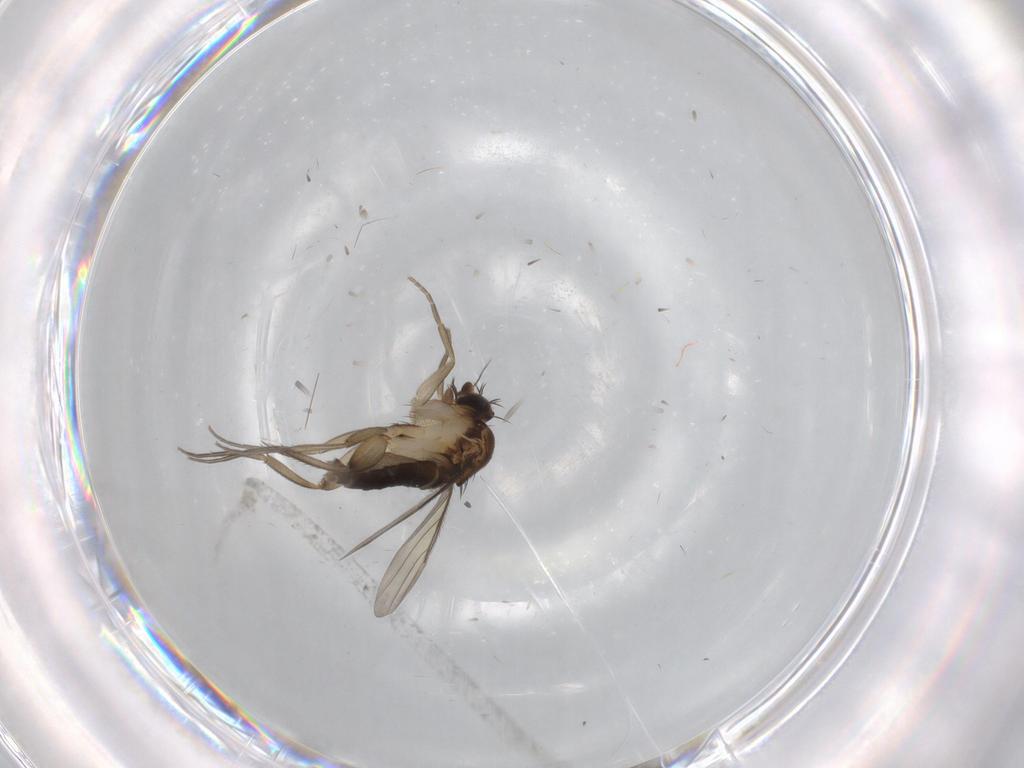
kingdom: Animalia
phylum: Arthropoda
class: Insecta
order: Diptera
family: Phoridae
